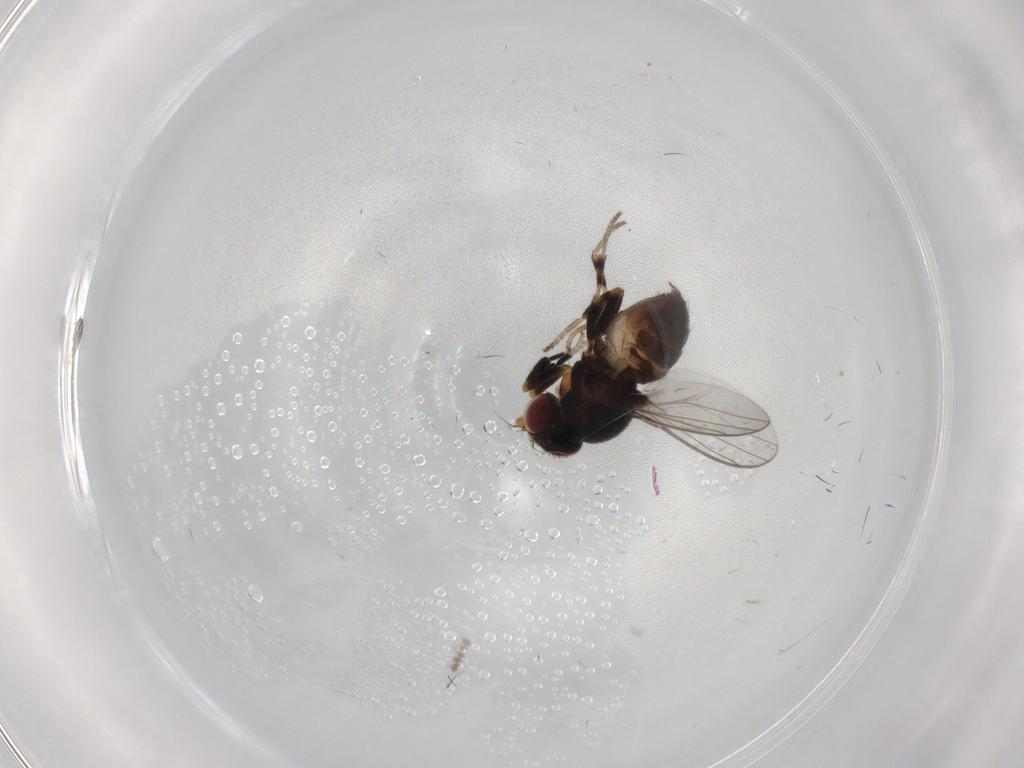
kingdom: Animalia
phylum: Arthropoda
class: Insecta
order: Diptera
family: Chloropidae
